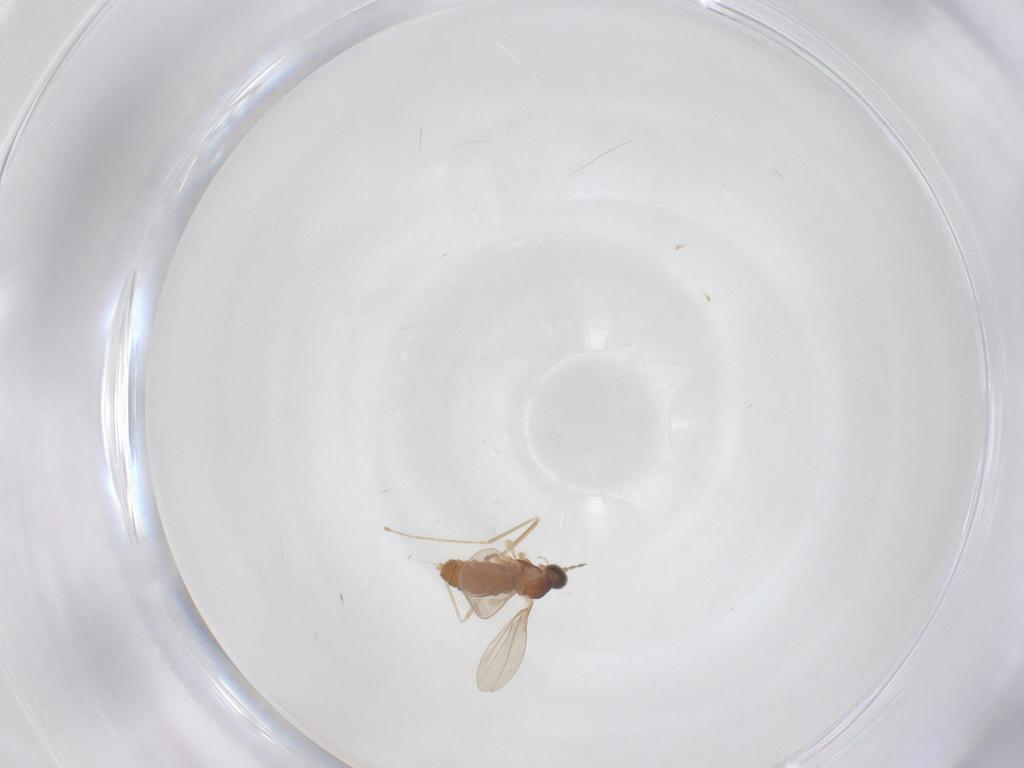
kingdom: Animalia
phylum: Arthropoda
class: Insecta
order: Diptera
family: Cecidomyiidae
